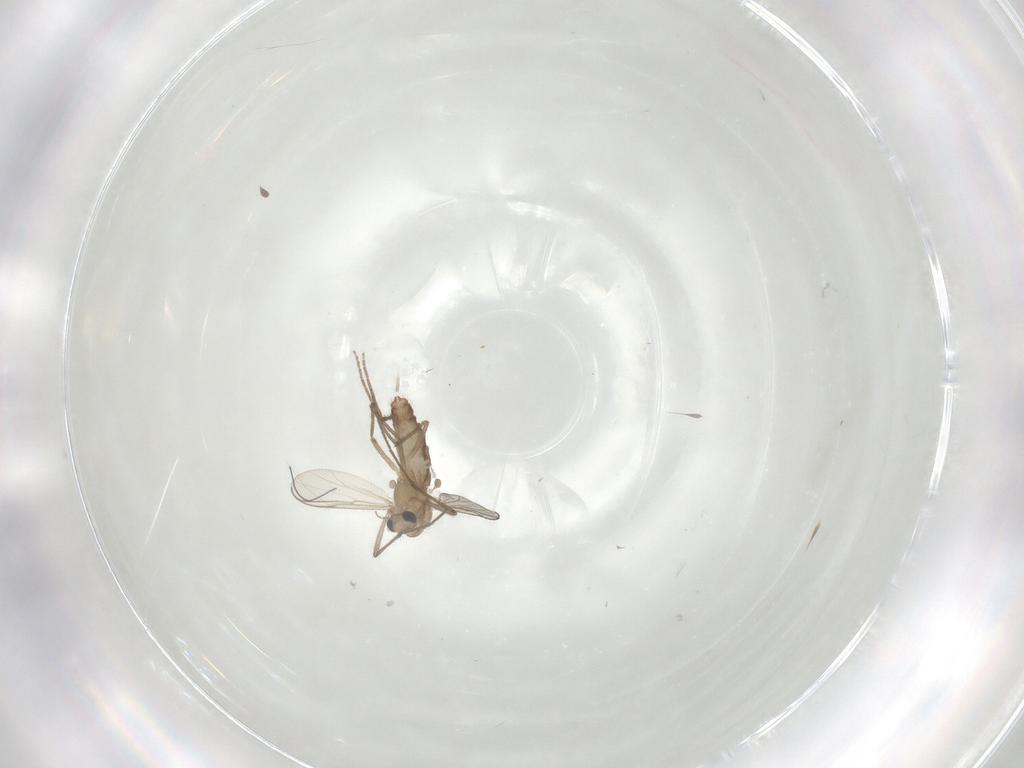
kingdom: Animalia
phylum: Arthropoda
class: Insecta
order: Diptera
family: Chironomidae
